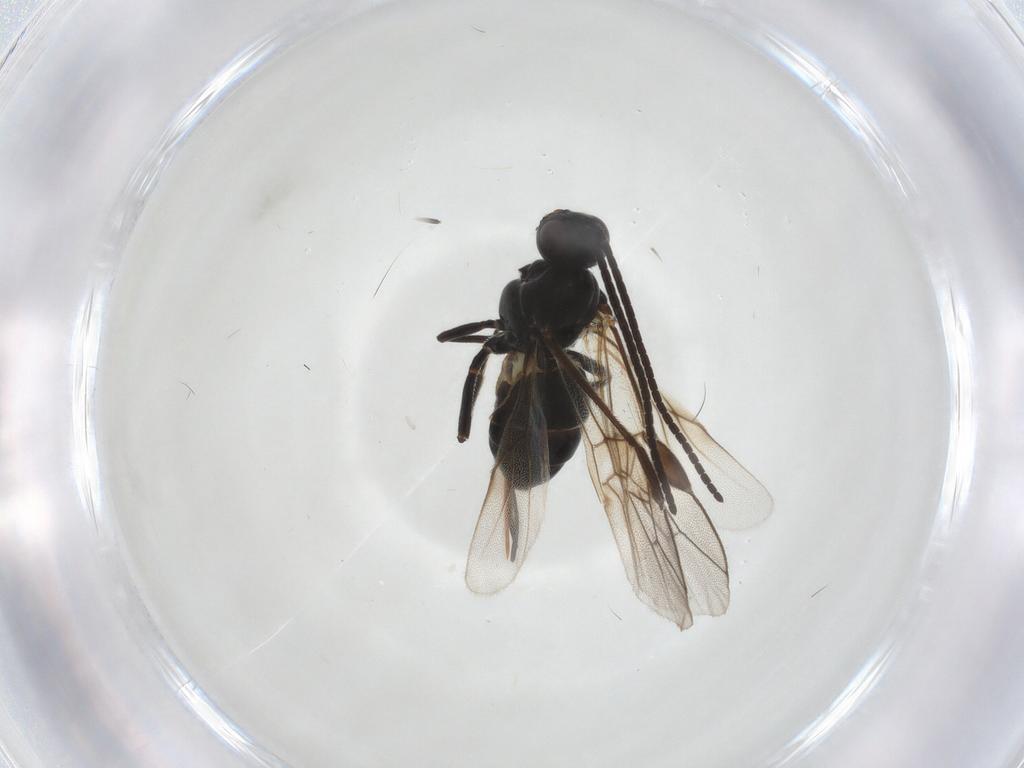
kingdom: Animalia
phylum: Arthropoda
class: Insecta
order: Hymenoptera
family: Braconidae
